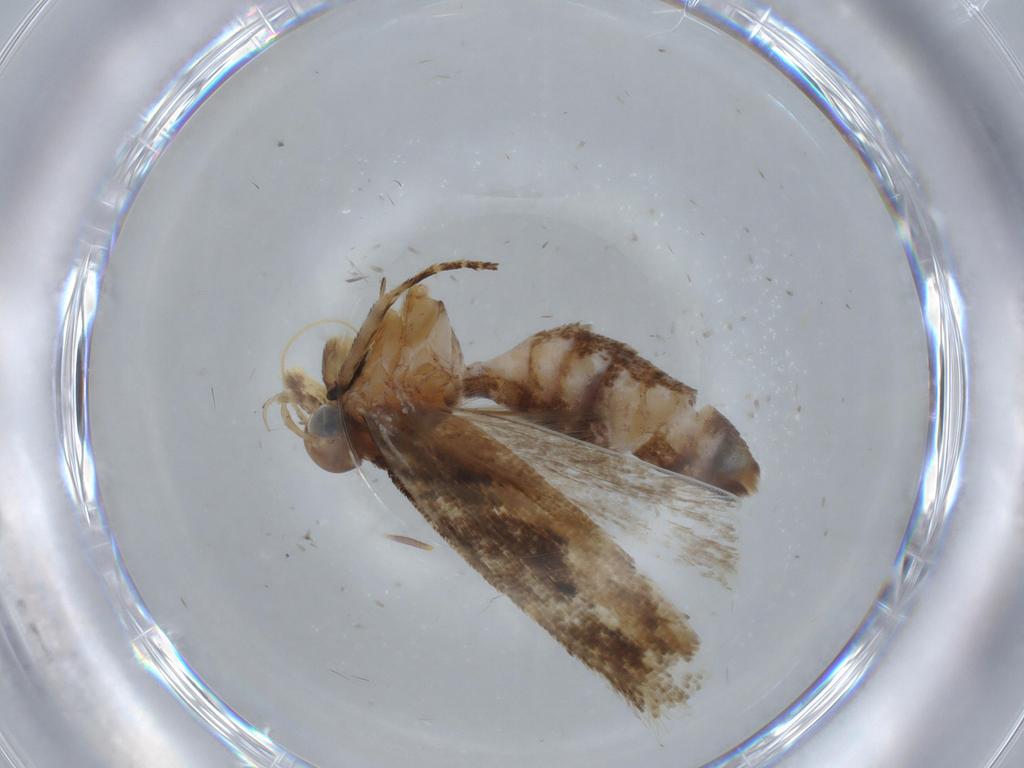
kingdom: Animalia
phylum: Arthropoda
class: Insecta
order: Lepidoptera
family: Gelechiidae
